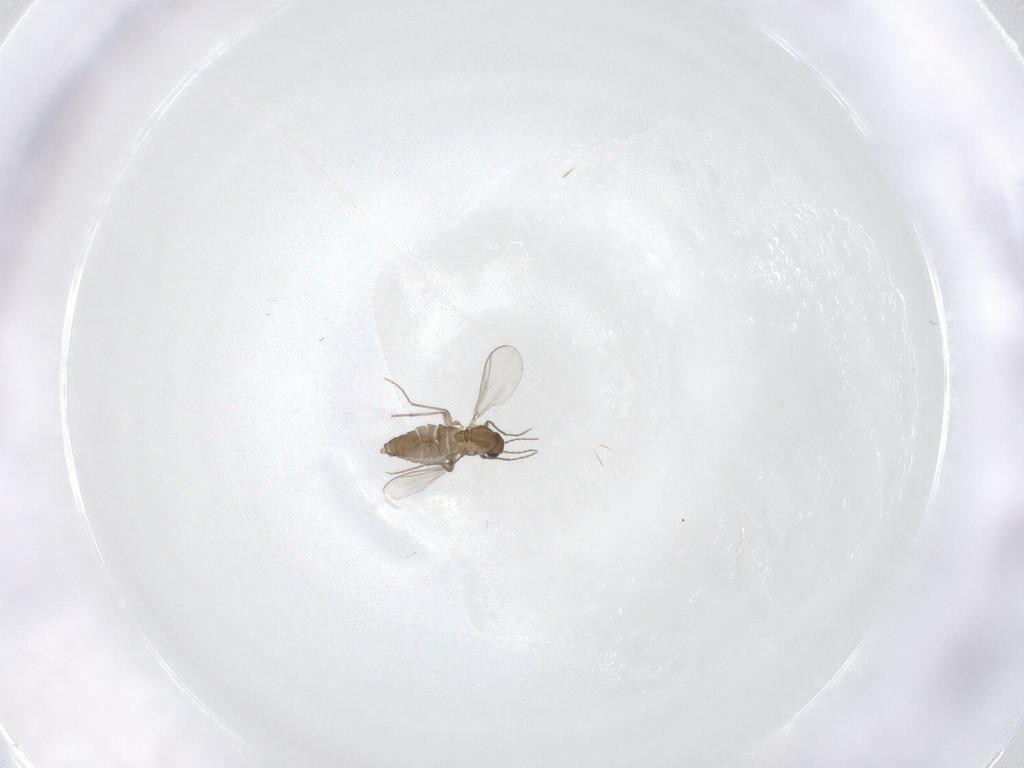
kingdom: Animalia
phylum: Arthropoda
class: Insecta
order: Diptera
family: Chironomidae
